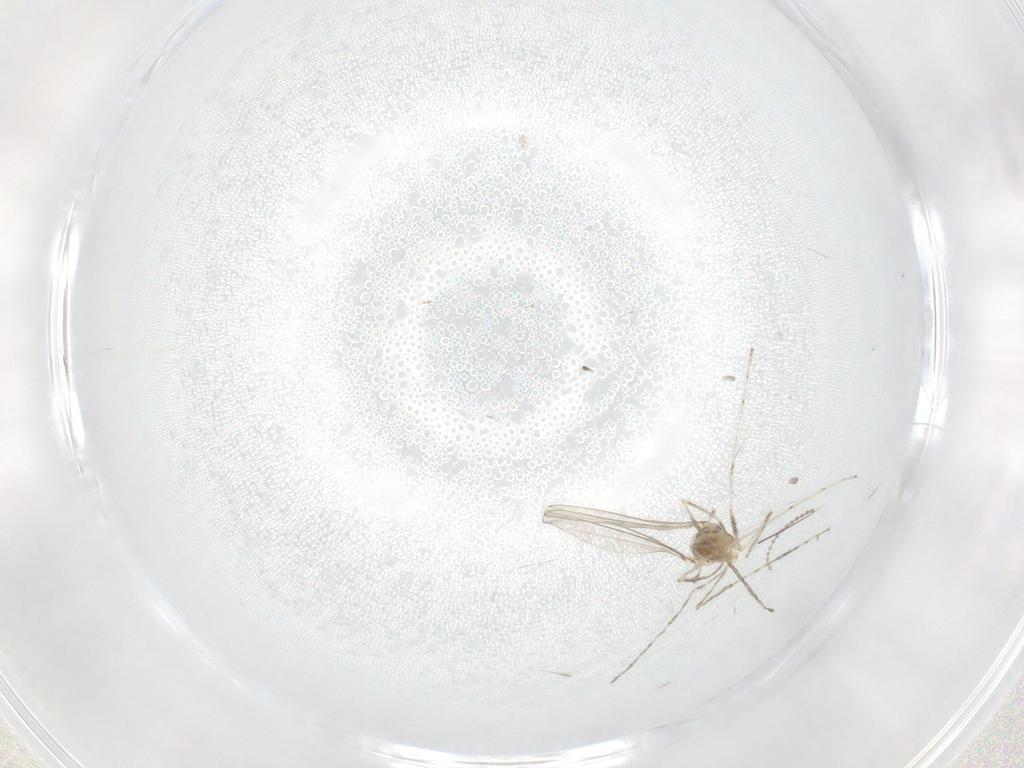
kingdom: Animalia
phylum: Arthropoda
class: Insecta
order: Diptera
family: Cecidomyiidae
